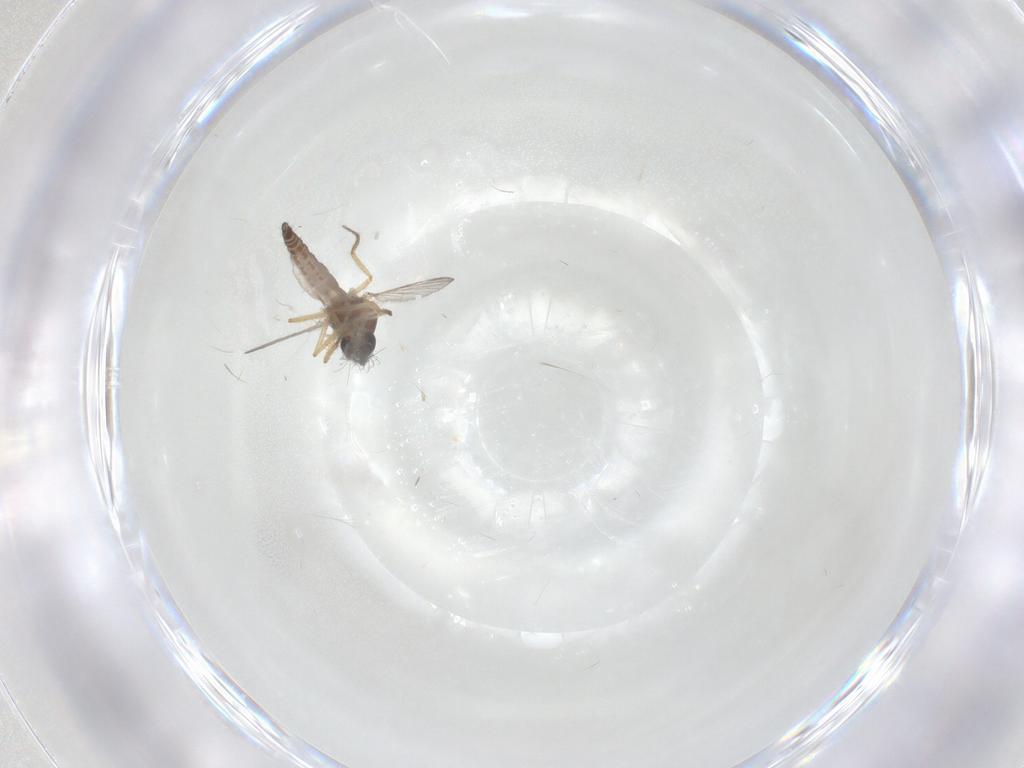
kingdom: Animalia
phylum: Arthropoda
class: Insecta
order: Diptera
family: Ceratopogonidae
